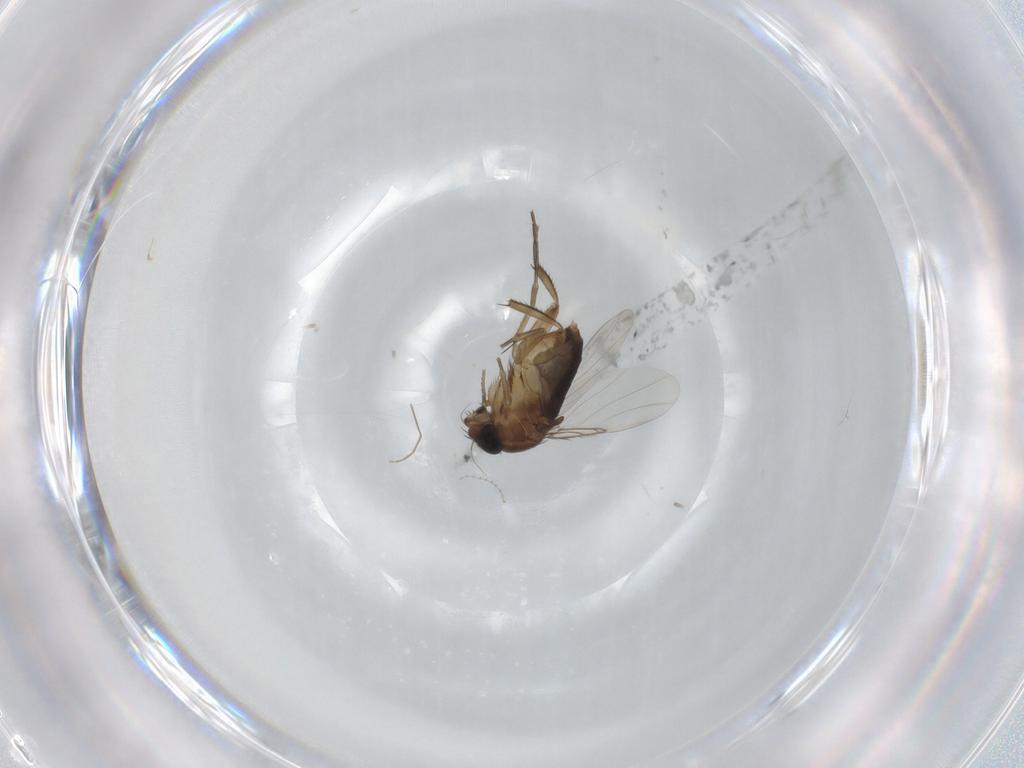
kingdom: Animalia
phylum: Arthropoda
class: Insecta
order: Diptera
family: Phoridae
